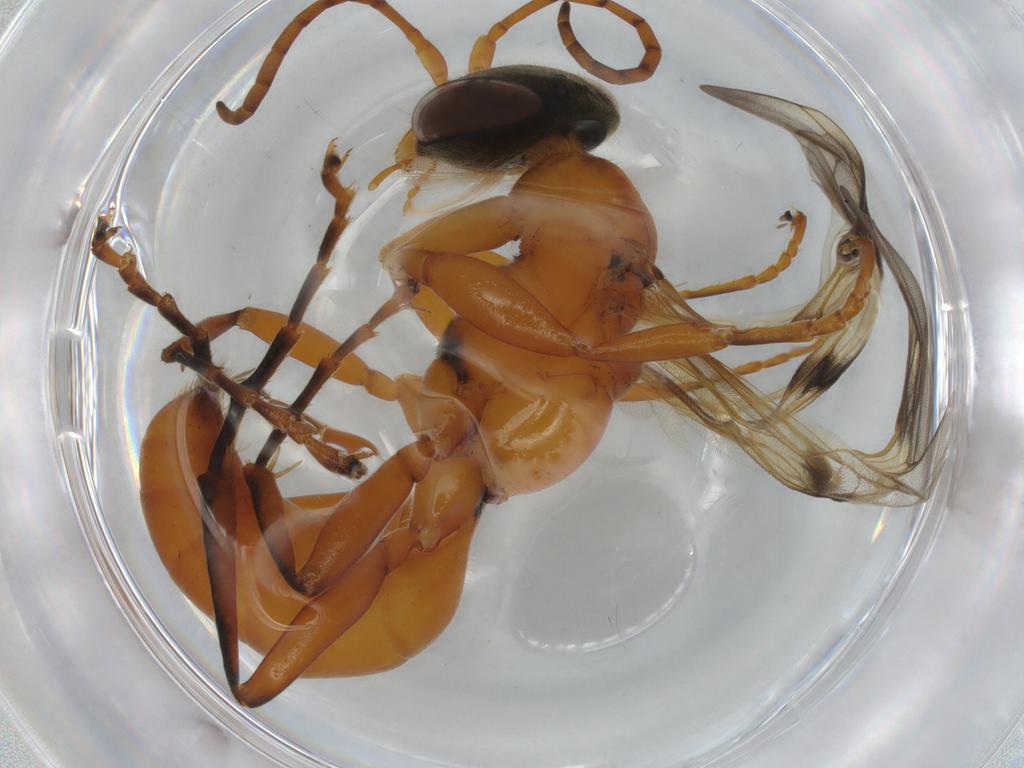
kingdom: Animalia
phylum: Arthropoda
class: Insecta
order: Hymenoptera
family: Pompilidae
